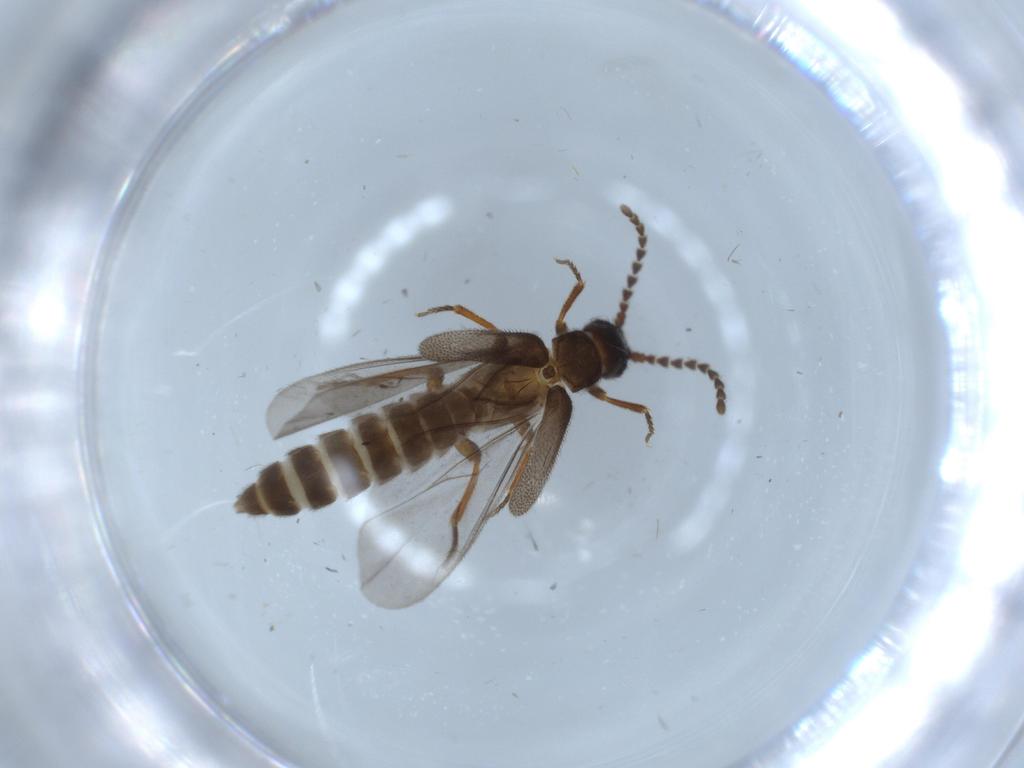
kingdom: Animalia
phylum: Arthropoda
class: Insecta
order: Coleoptera
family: Omethidae
